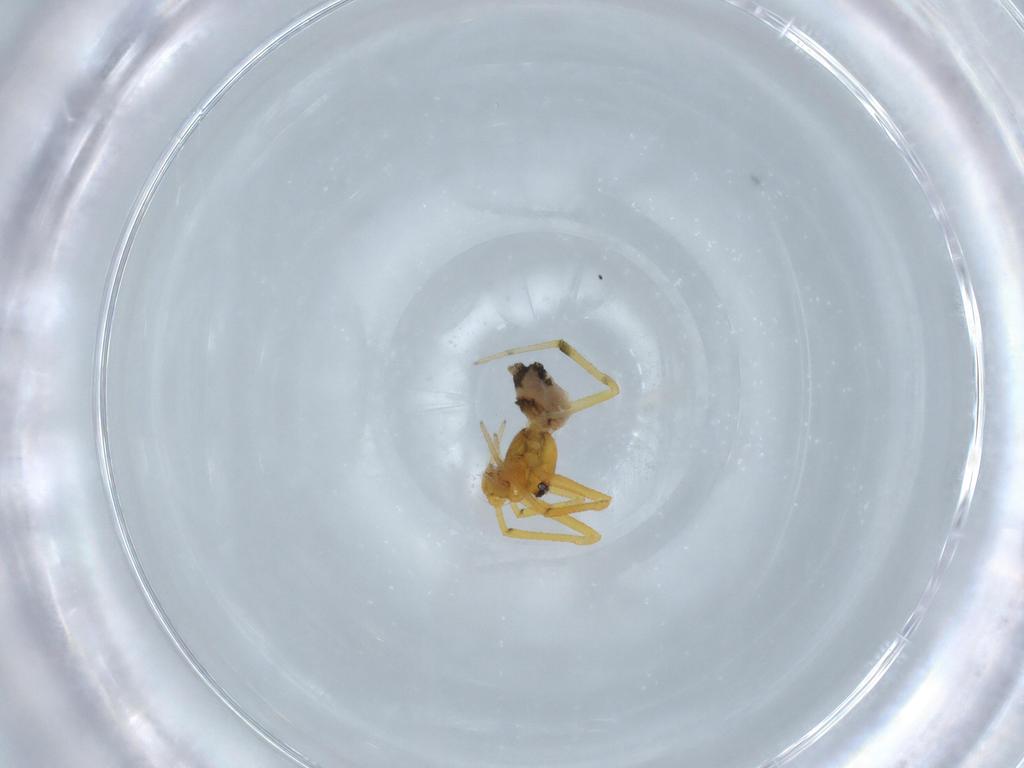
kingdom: Animalia
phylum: Arthropoda
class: Arachnida
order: Araneae
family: Theridiidae
